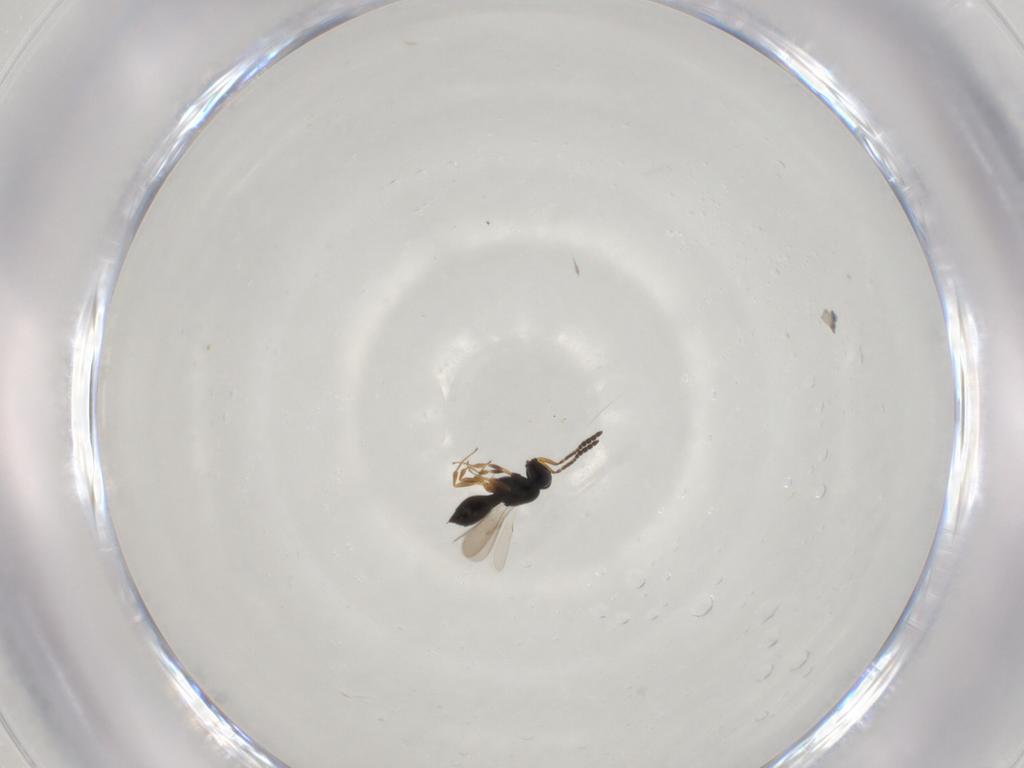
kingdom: Animalia
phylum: Arthropoda
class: Insecta
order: Hymenoptera
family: Scelionidae
